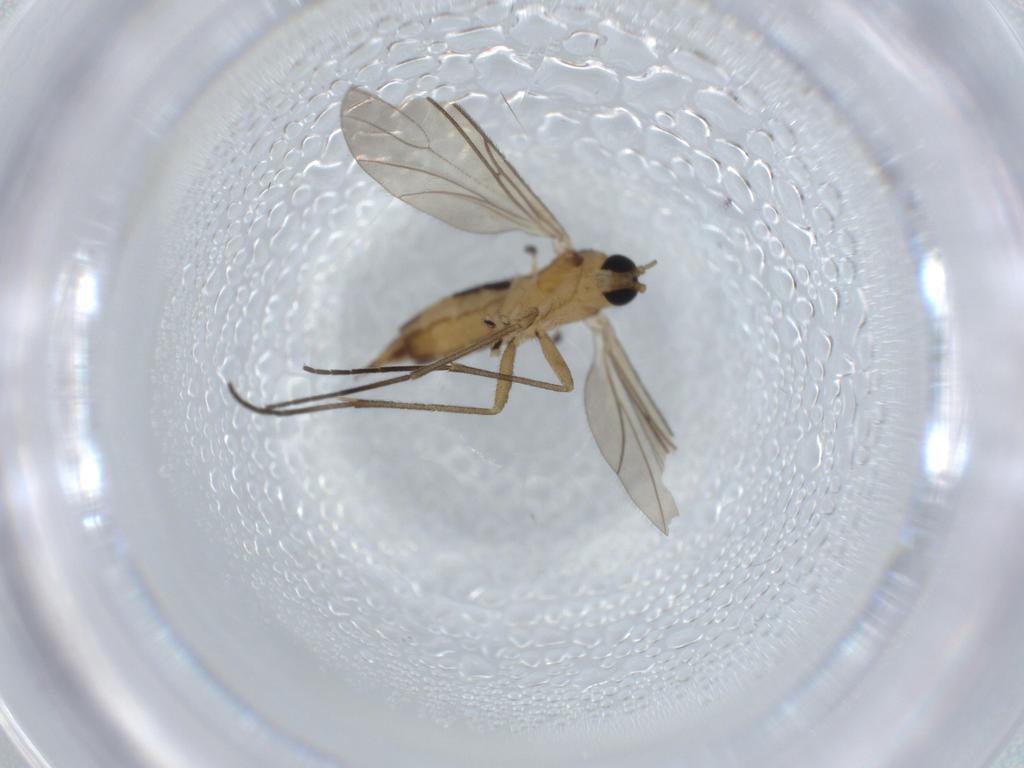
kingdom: Animalia
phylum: Arthropoda
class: Insecta
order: Diptera
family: Sciaridae
